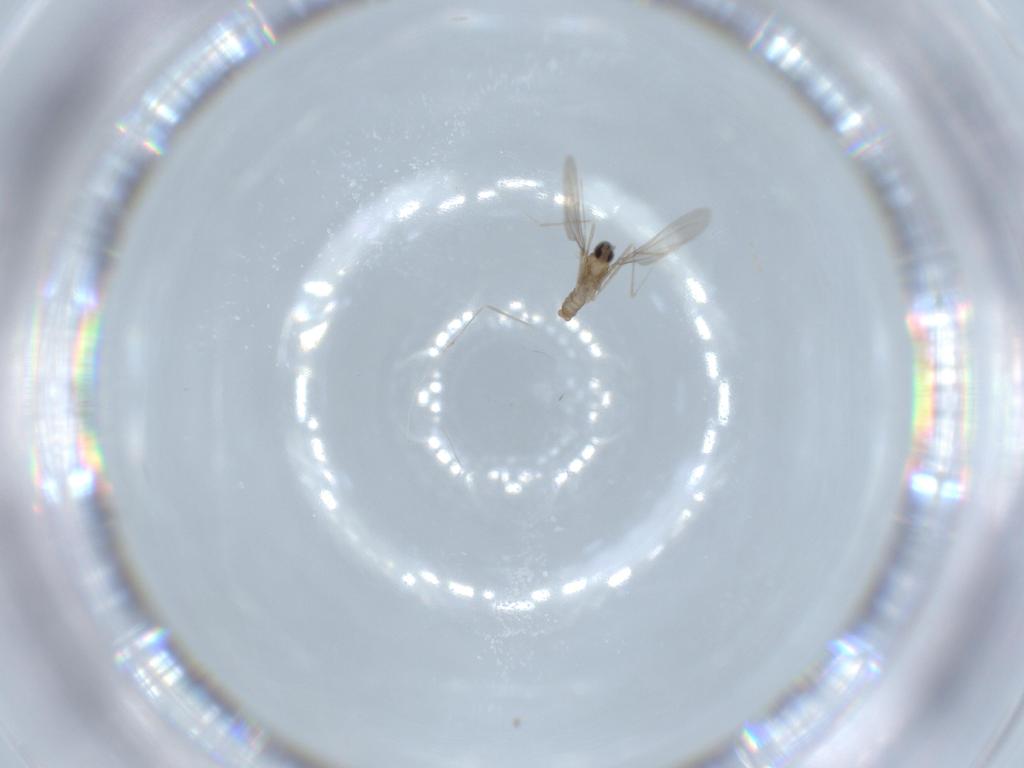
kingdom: Animalia
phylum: Arthropoda
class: Insecta
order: Diptera
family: Cecidomyiidae
